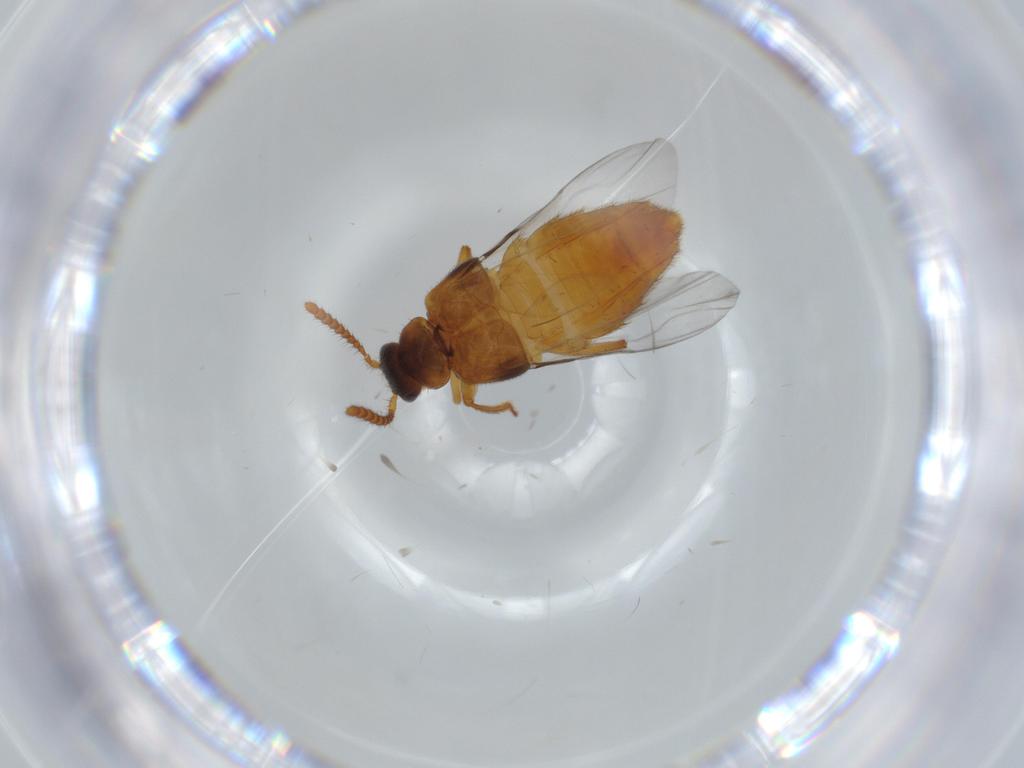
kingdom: Animalia
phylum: Arthropoda
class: Insecta
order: Coleoptera
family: Staphylinidae
